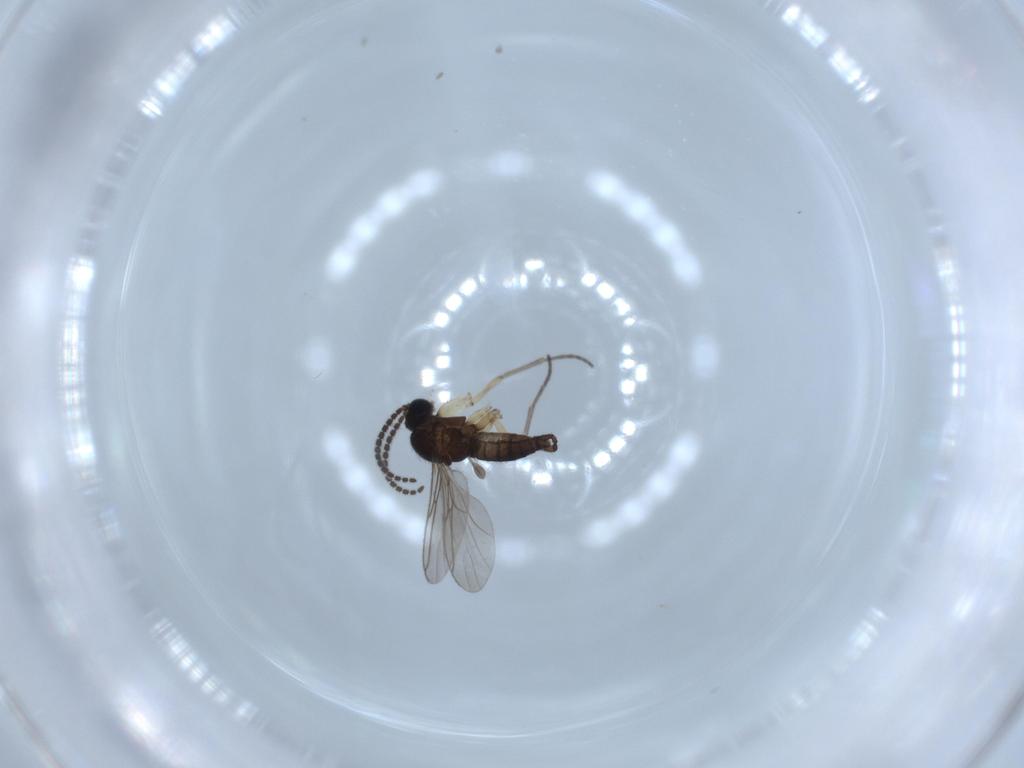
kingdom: Animalia
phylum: Arthropoda
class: Insecta
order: Diptera
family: Sciaridae
